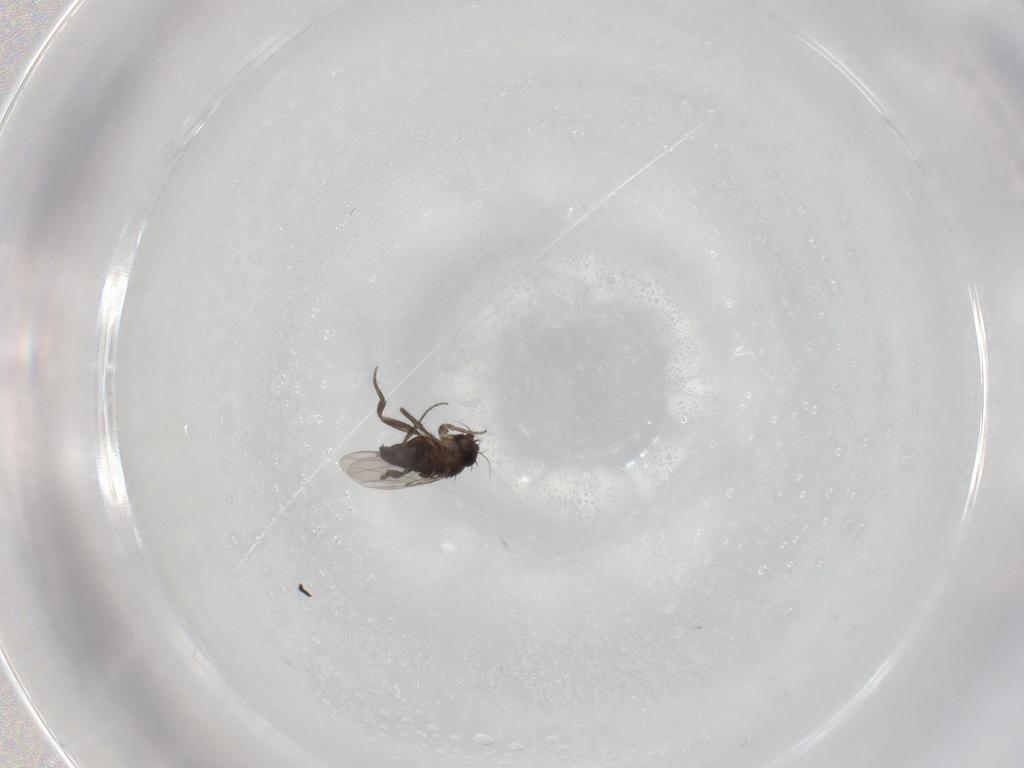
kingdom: Animalia
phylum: Arthropoda
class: Insecta
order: Diptera
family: Phoridae
